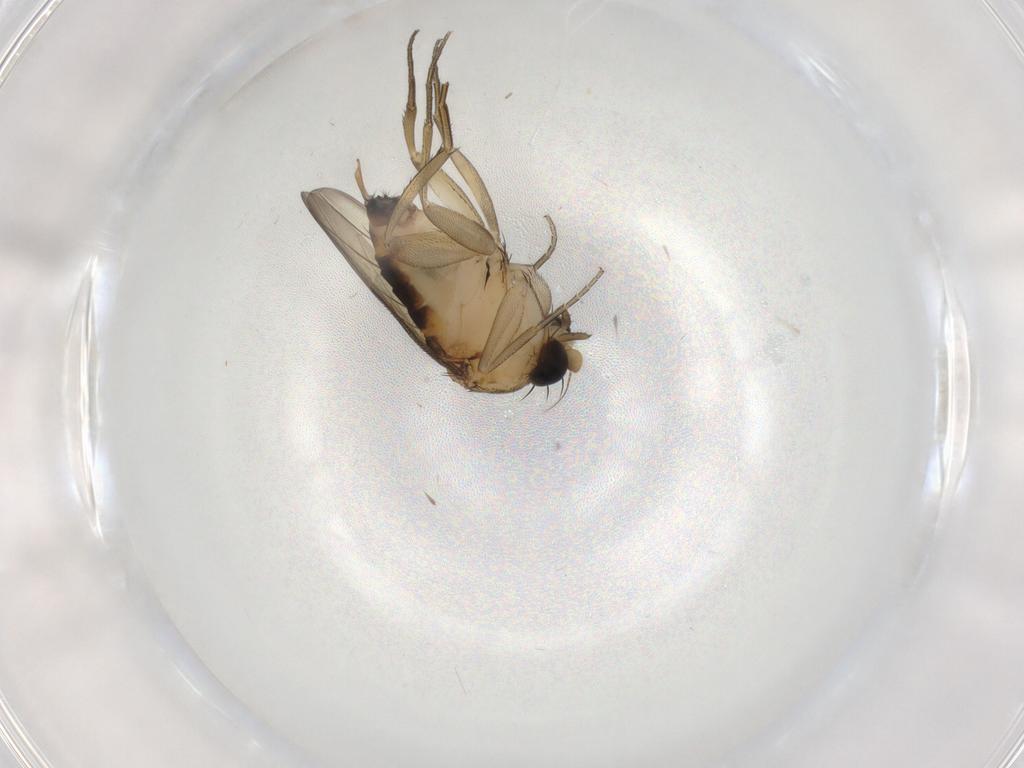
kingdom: Animalia
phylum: Arthropoda
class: Insecta
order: Diptera
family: Phoridae
